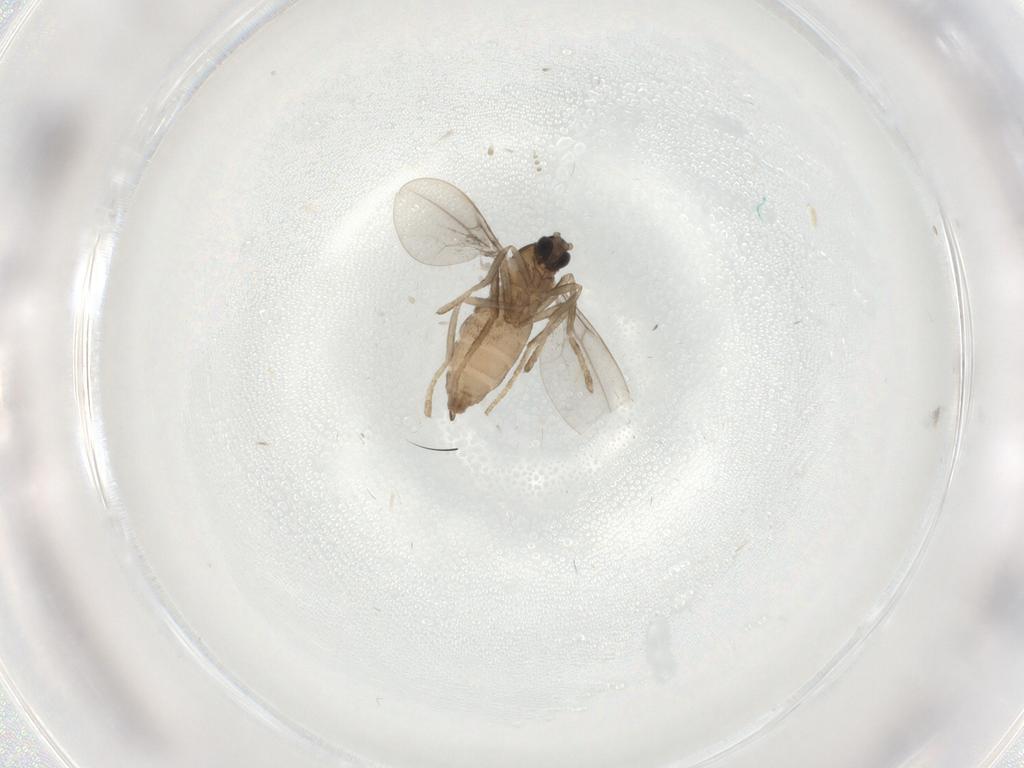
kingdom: Animalia
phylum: Arthropoda
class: Insecta
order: Diptera
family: Cecidomyiidae
